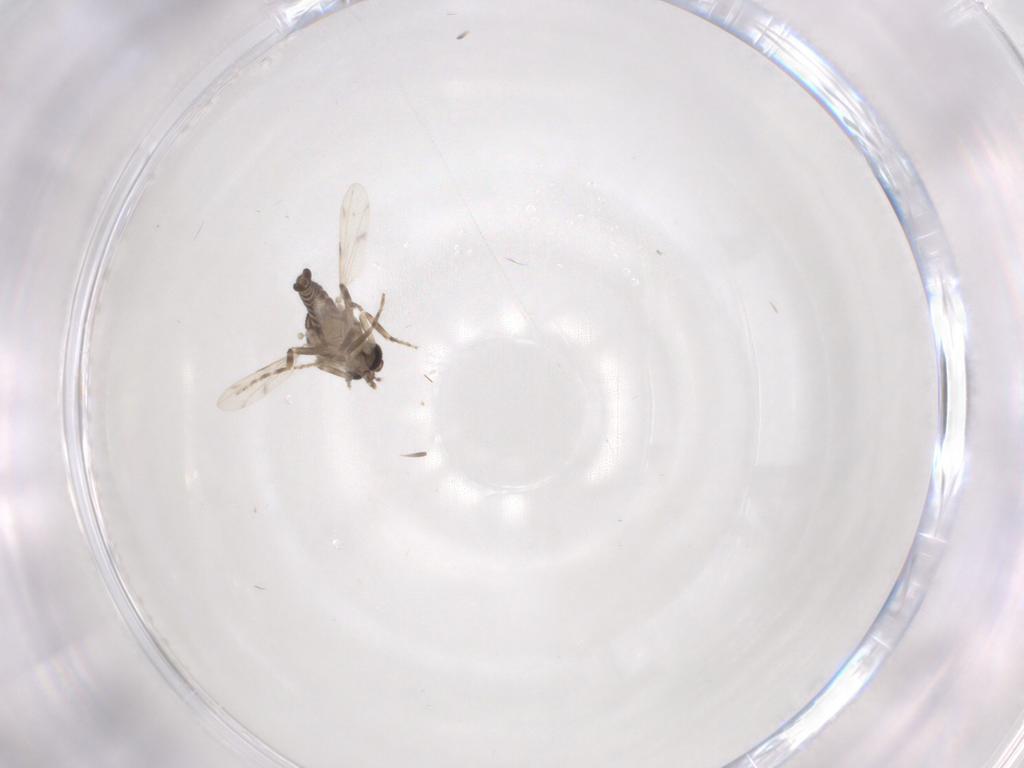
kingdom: Animalia
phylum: Arthropoda
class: Insecta
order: Diptera
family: Ceratopogonidae
